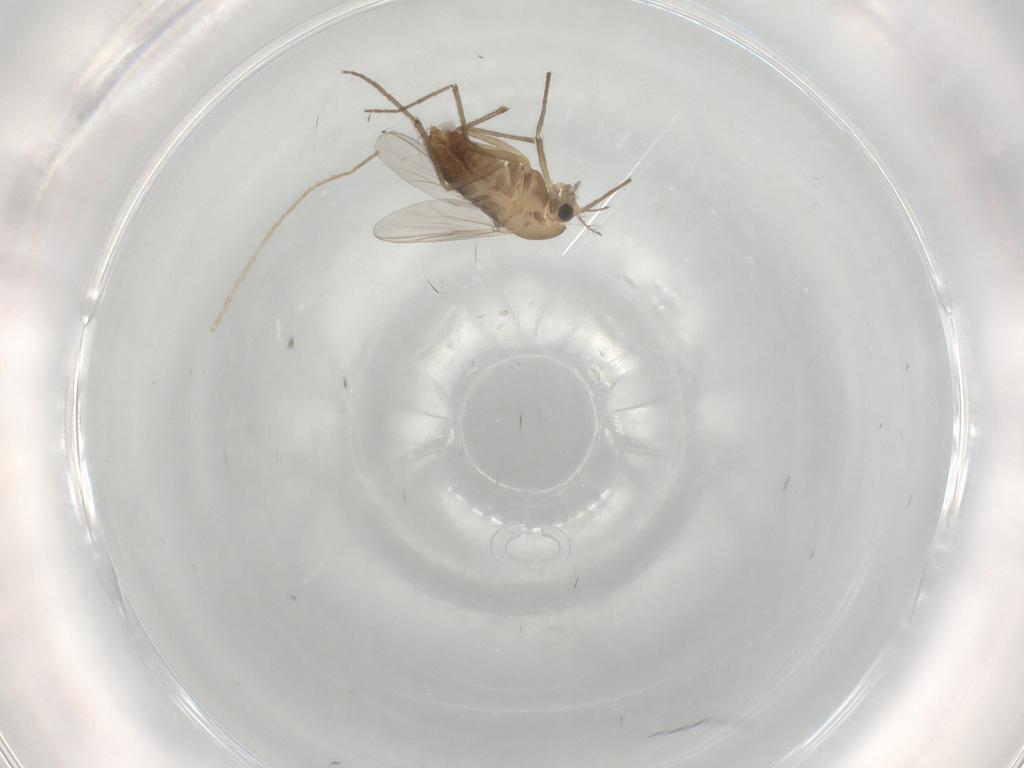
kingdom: Animalia
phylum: Arthropoda
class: Insecta
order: Diptera
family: Chironomidae
